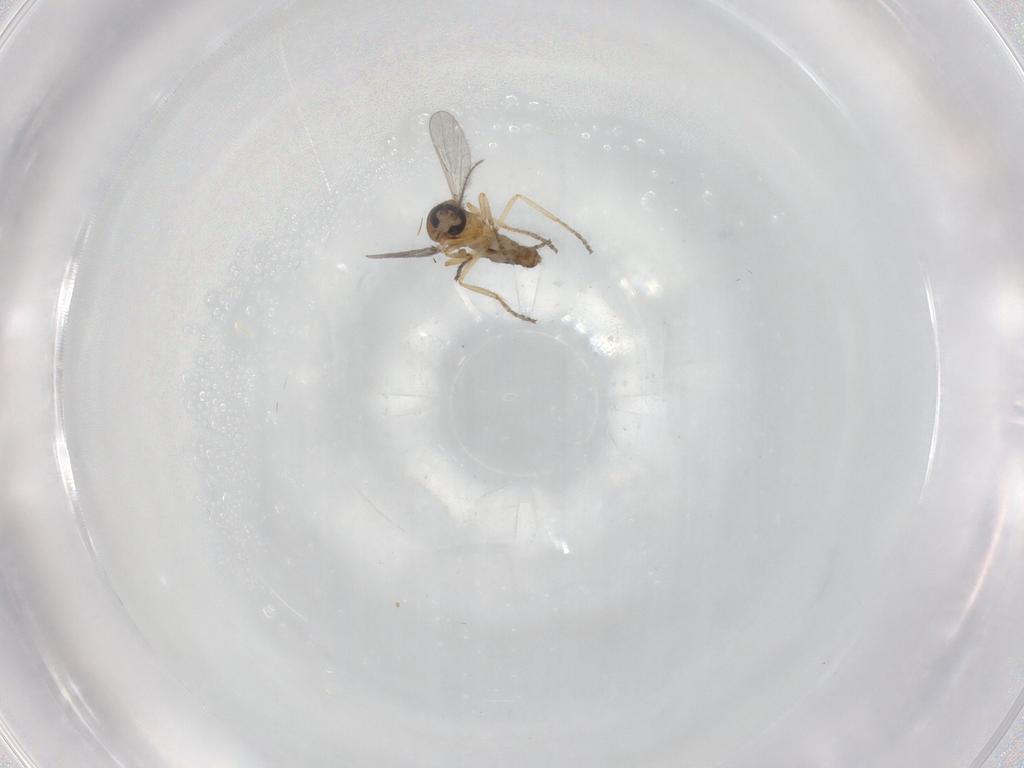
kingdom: Animalia
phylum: Arthropoda
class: Insecta
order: Diptera
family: Ceratopogonidae
